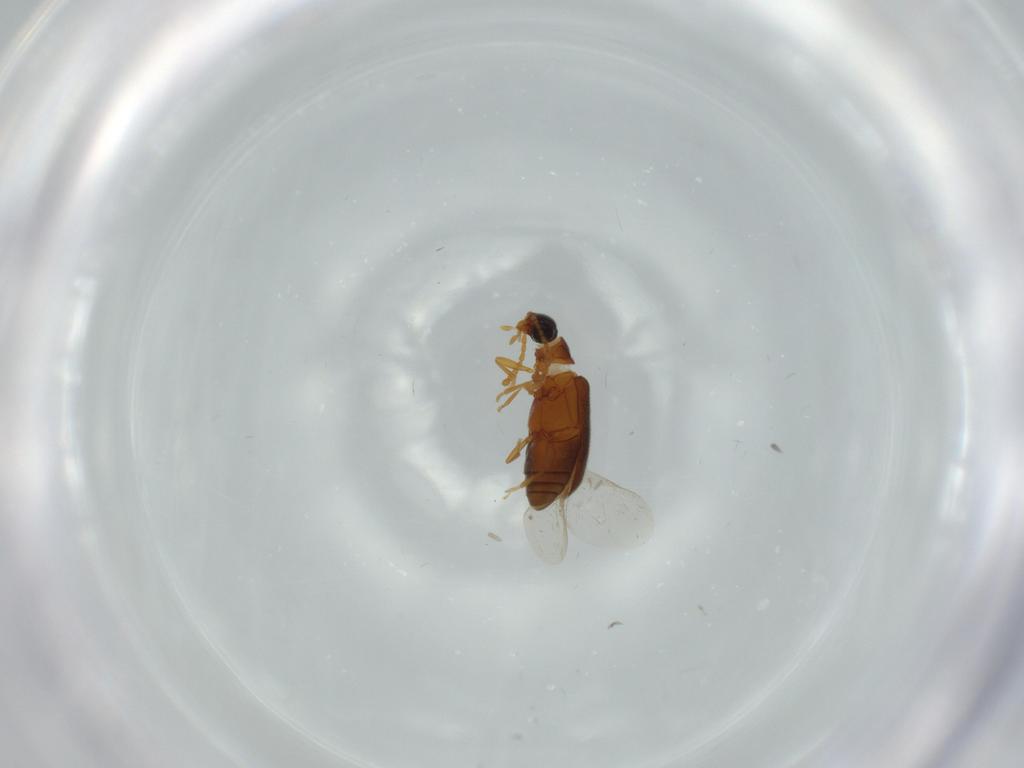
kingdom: Animalia
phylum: Arthropoda
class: Insecta
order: Coleoptera
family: Aderidae
